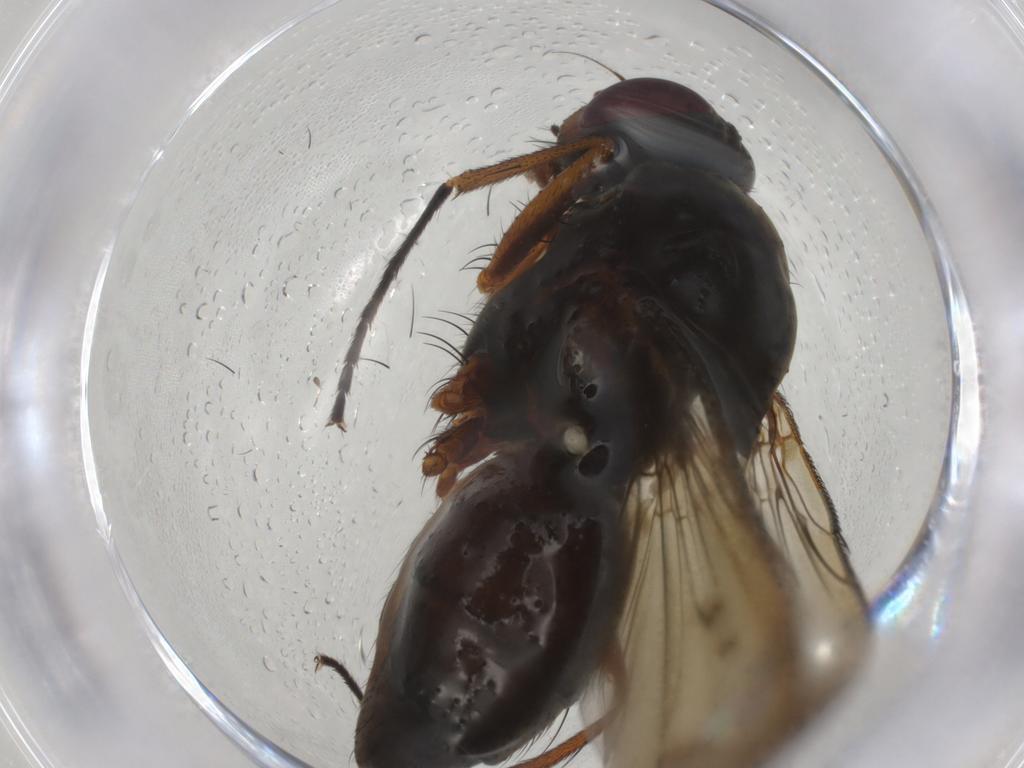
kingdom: Animalia
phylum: Arthropoda
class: Insecta
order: Diptera
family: Tachinidae
